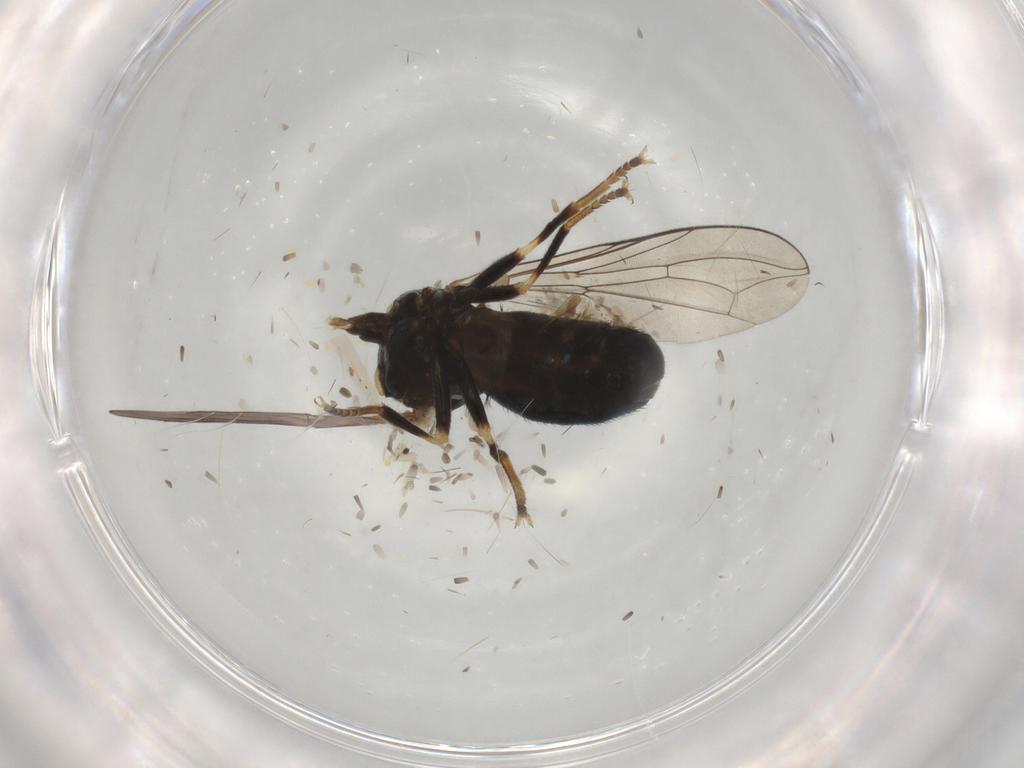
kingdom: Animalia
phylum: Arthropoda
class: Insecta
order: Diptera
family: Pipunculidae
